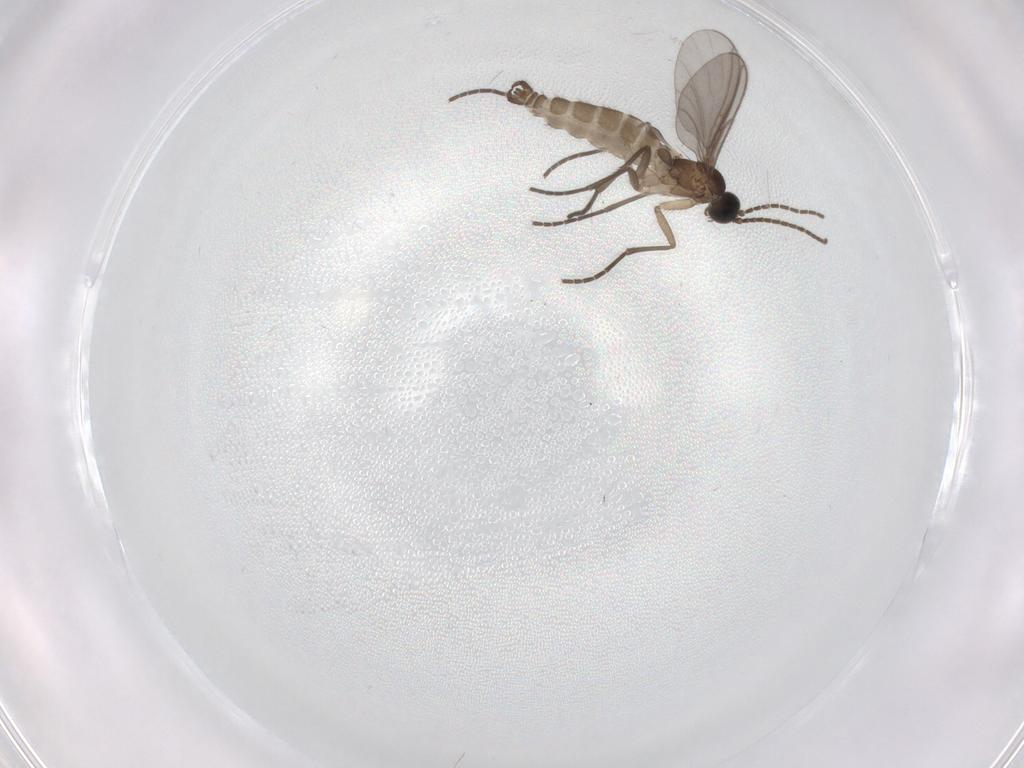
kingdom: Animalia
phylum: Arthropoda
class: Insecta
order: Diptera
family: Sciaridae
